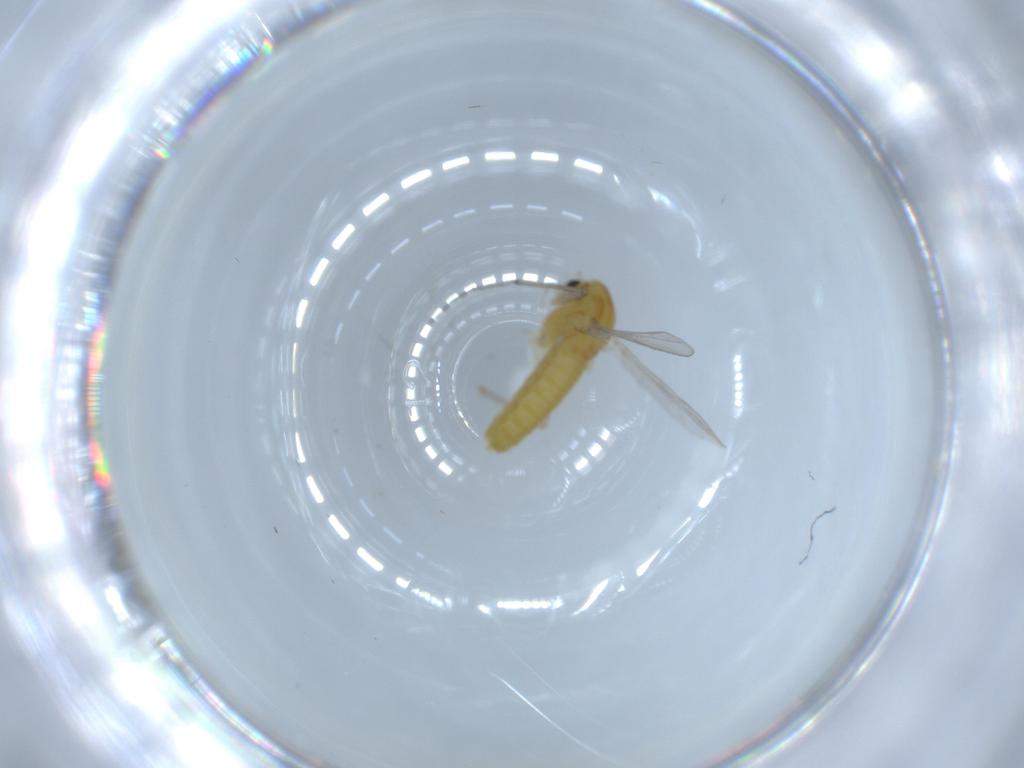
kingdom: Animalia
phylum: Arthropoda
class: Insecta
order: Diptera
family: Chironomidae
